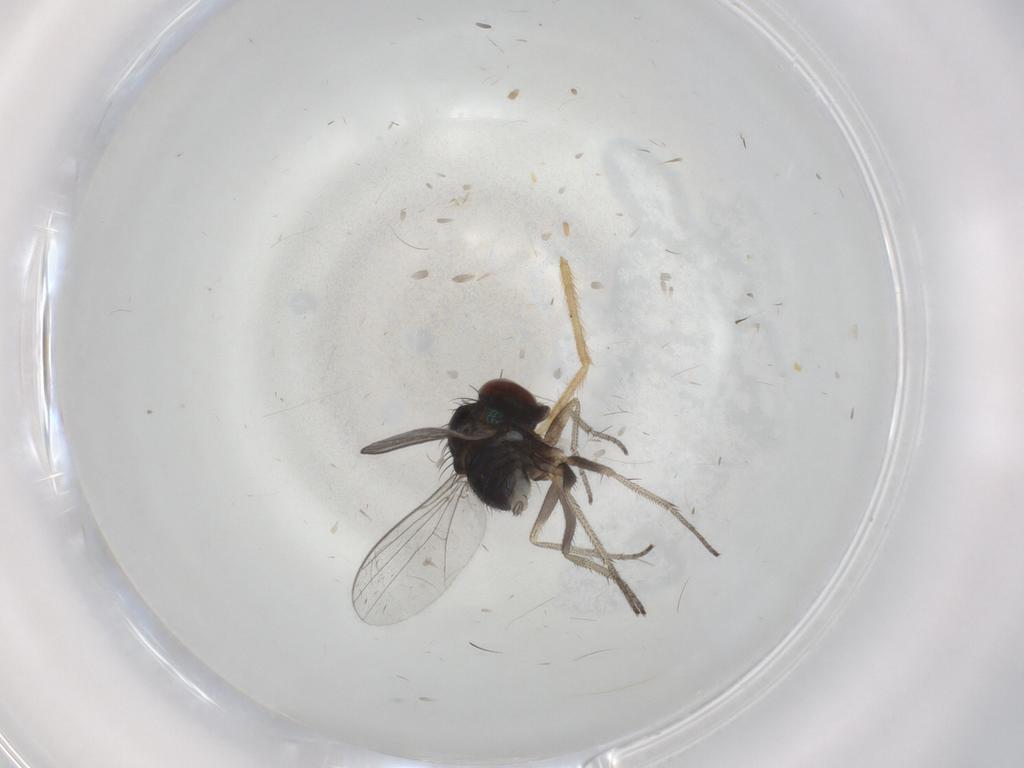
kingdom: Animalia
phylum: Arthropoda
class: Insecta
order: Diptera
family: Chironomidae
